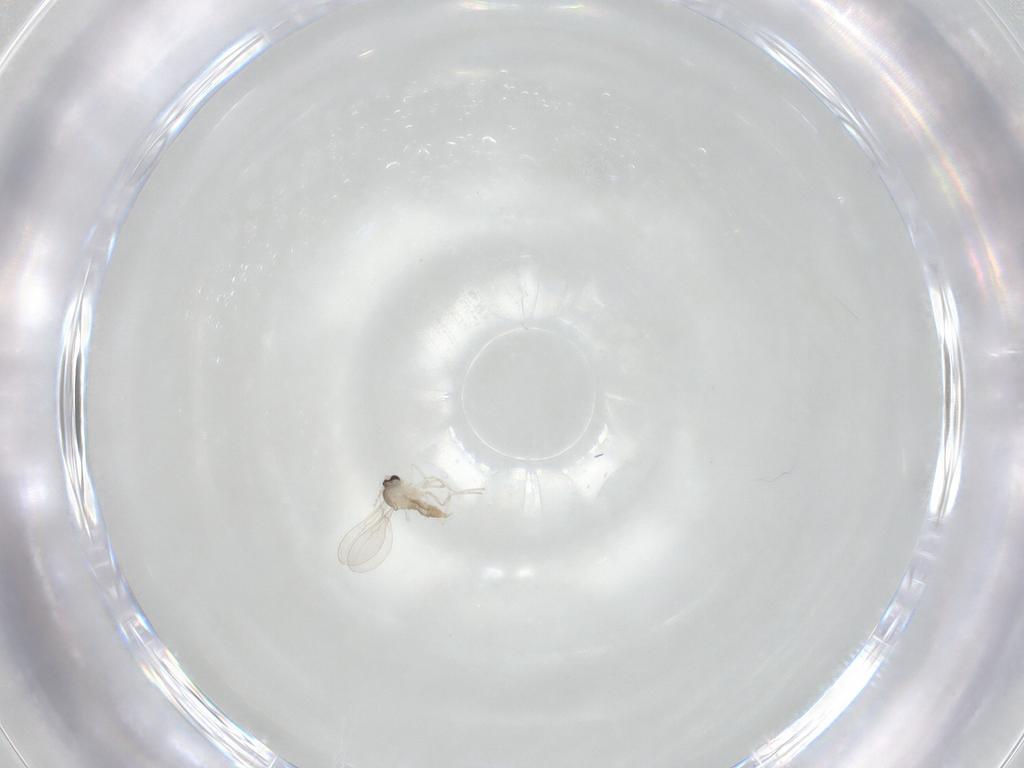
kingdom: Animalia
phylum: Arthropoda
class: Insecta
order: Diptera
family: Cecidomyiidae
